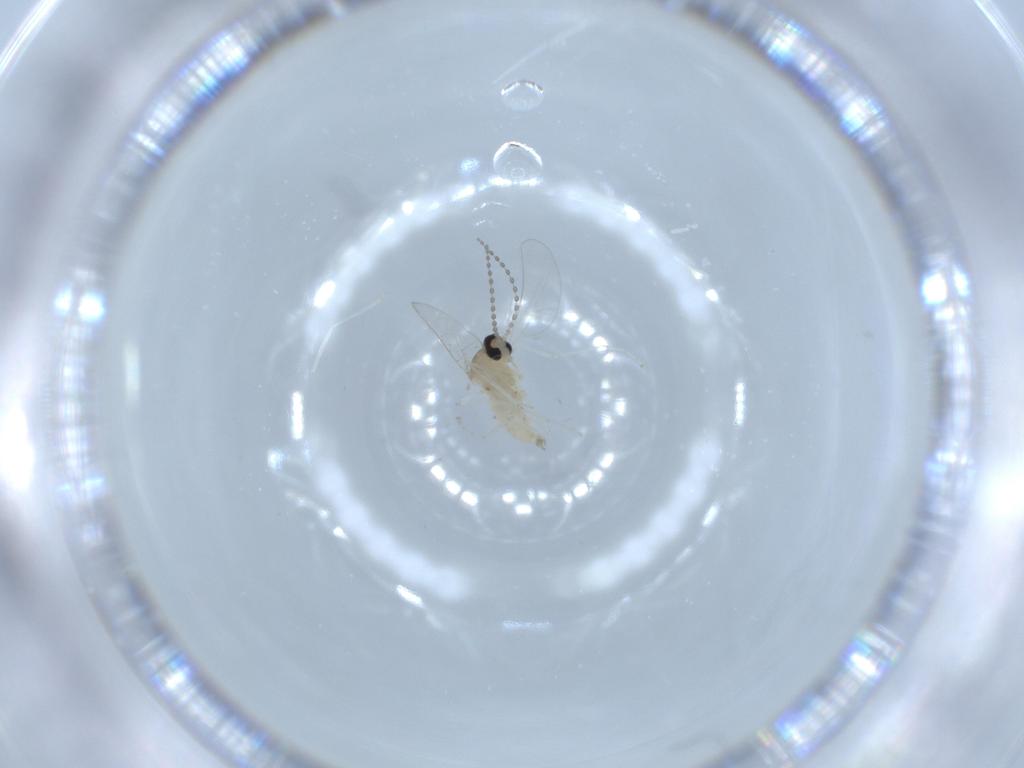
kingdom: Animalia
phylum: Arthropoda
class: Insecta
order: Diptera
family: Cecidomyiidae
